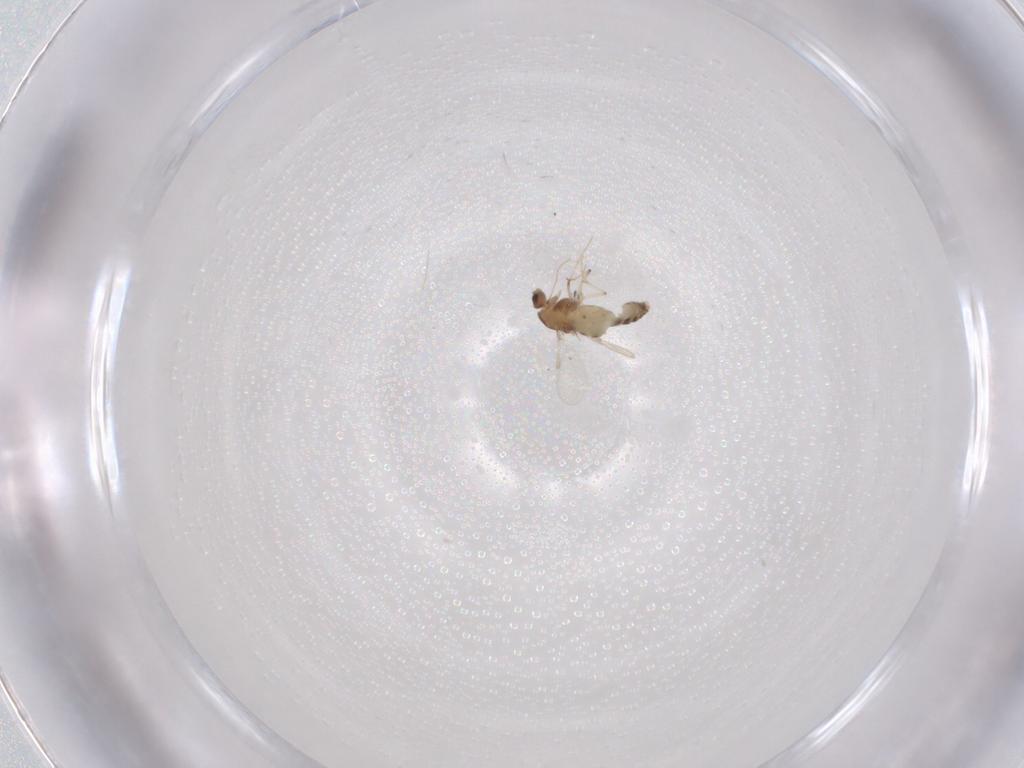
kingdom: Animalia
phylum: Arthropoda
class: Insecta
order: Diptera
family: Chironomidae
